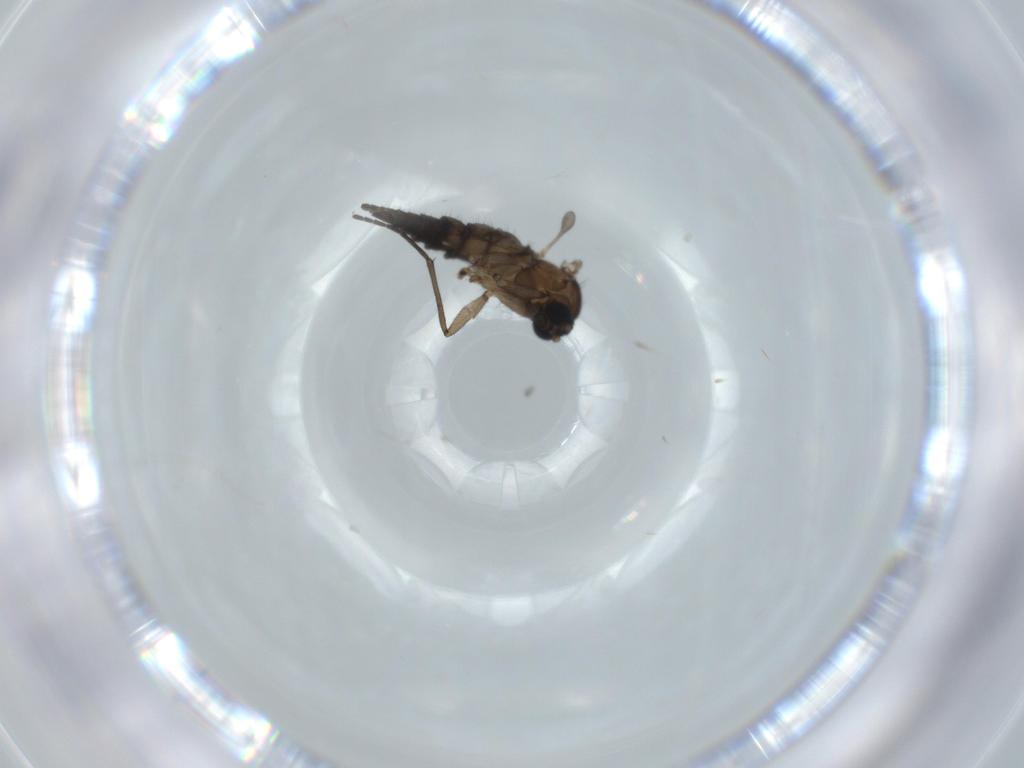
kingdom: Animalia
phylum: Arthropoda
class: Insecta
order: Diptera
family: Sciaridae
